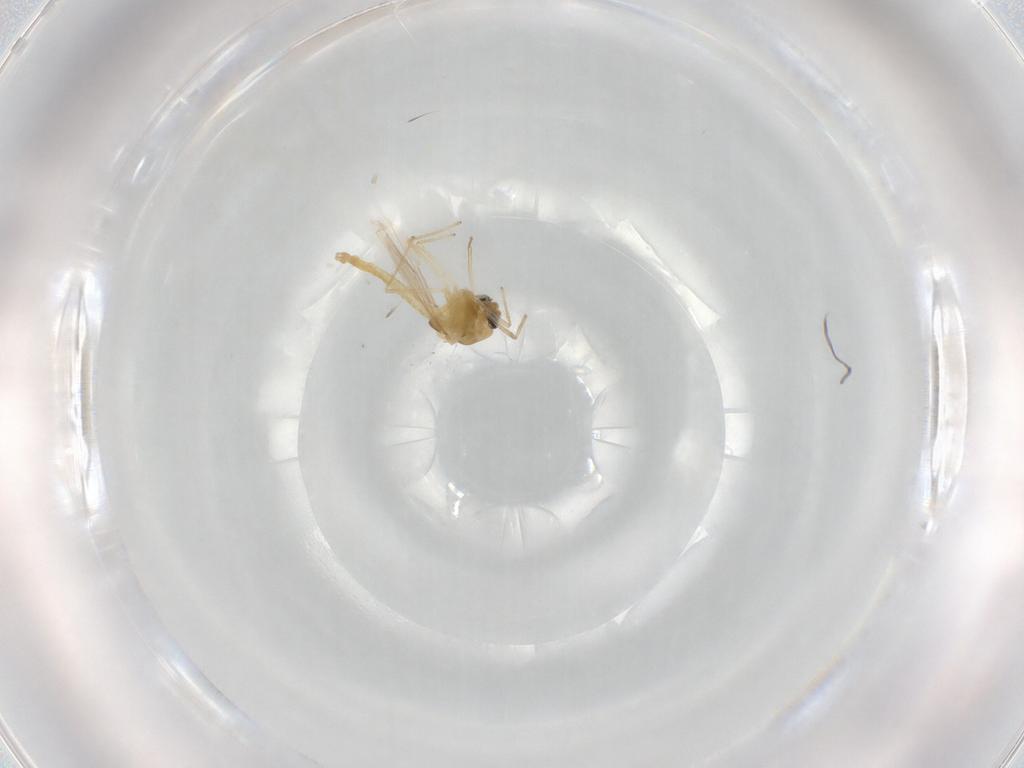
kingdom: Animalia
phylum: Arthropoda
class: Insecta
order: Diptera
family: Chironomidae
